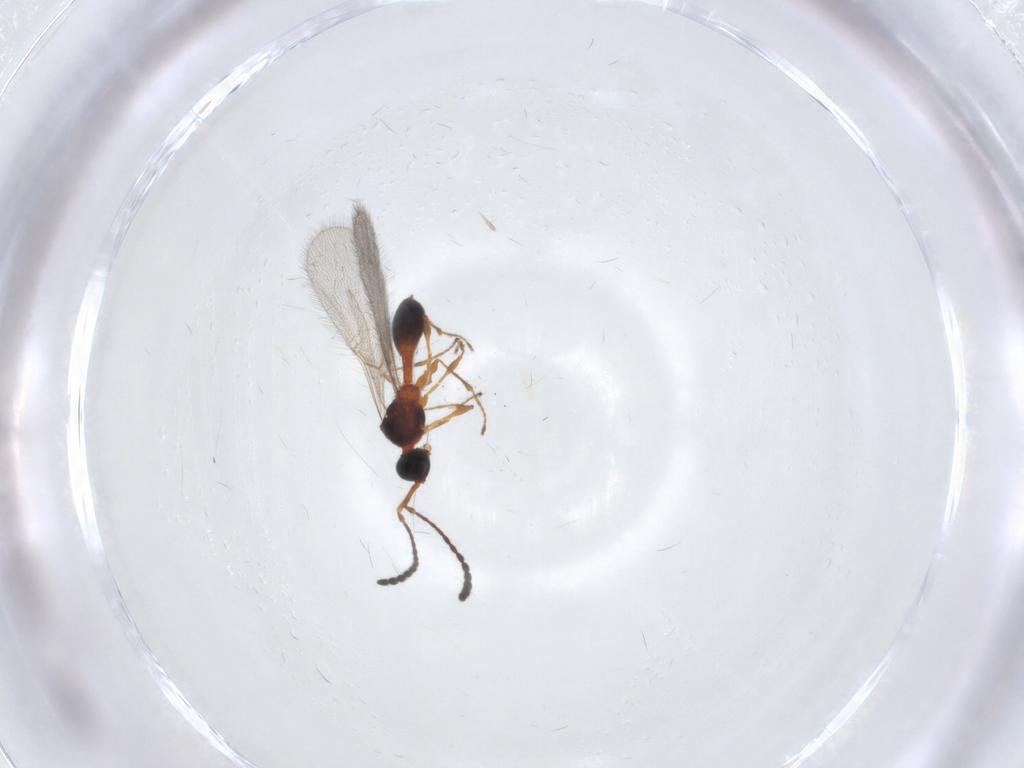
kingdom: Animalia
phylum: Arthropoda
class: Insecta
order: Hymenoptera
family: Diapriidae
